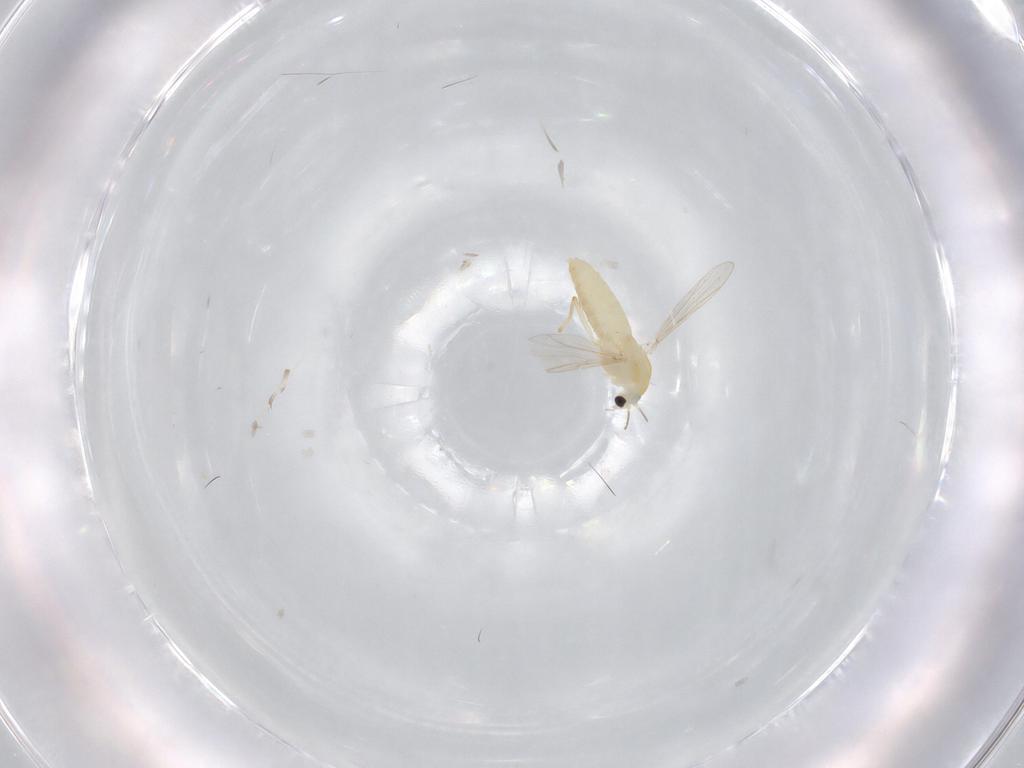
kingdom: Animalia
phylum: Arthropoda
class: Insecta
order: Diptera
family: Chironomidae
